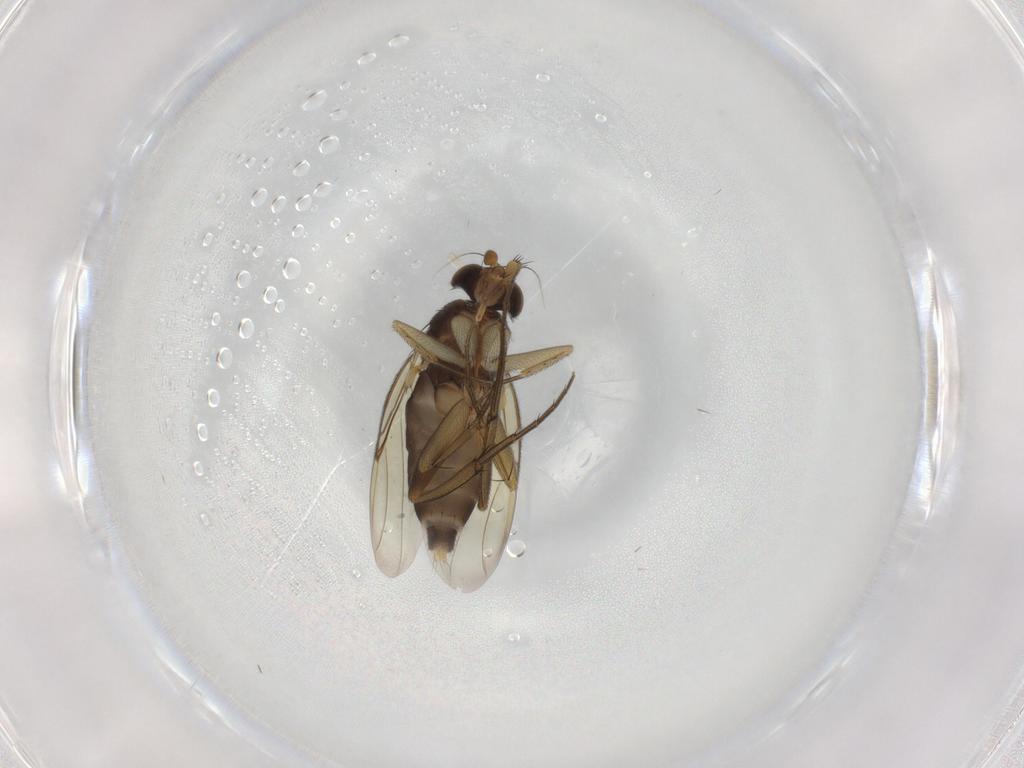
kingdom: Animalia
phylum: Arthropoda
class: Insecta
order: Diptera
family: Phoridae
